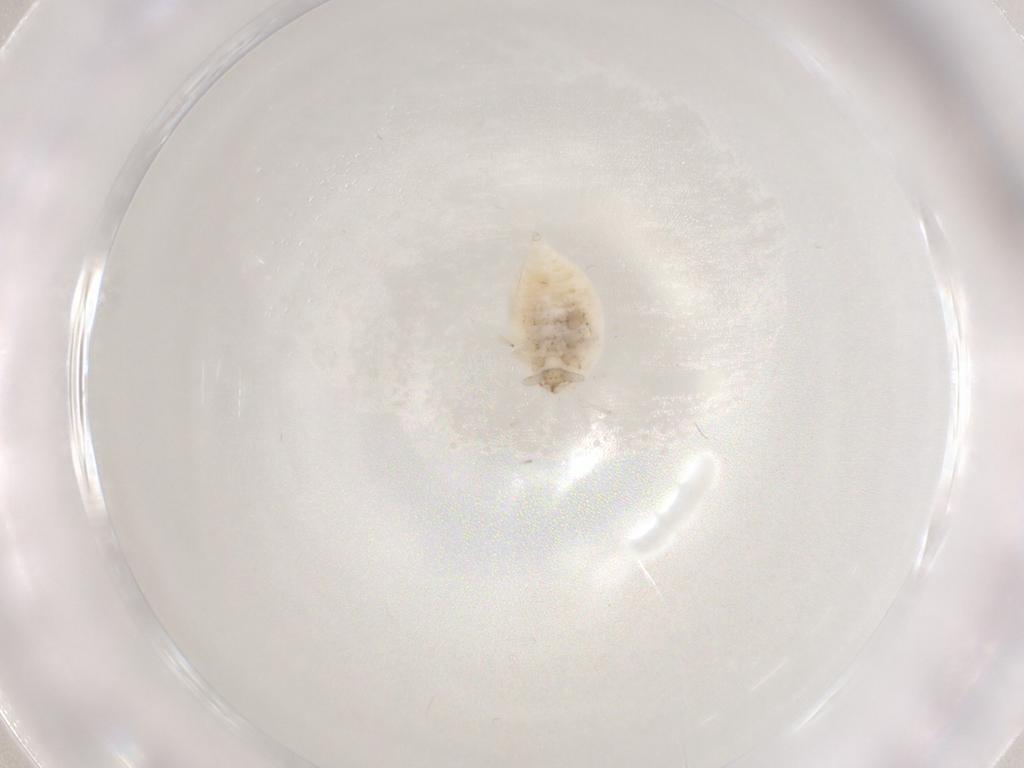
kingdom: Animalia
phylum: Arthropoda
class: Insecta
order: Neuroptera
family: Coniopterygidae
